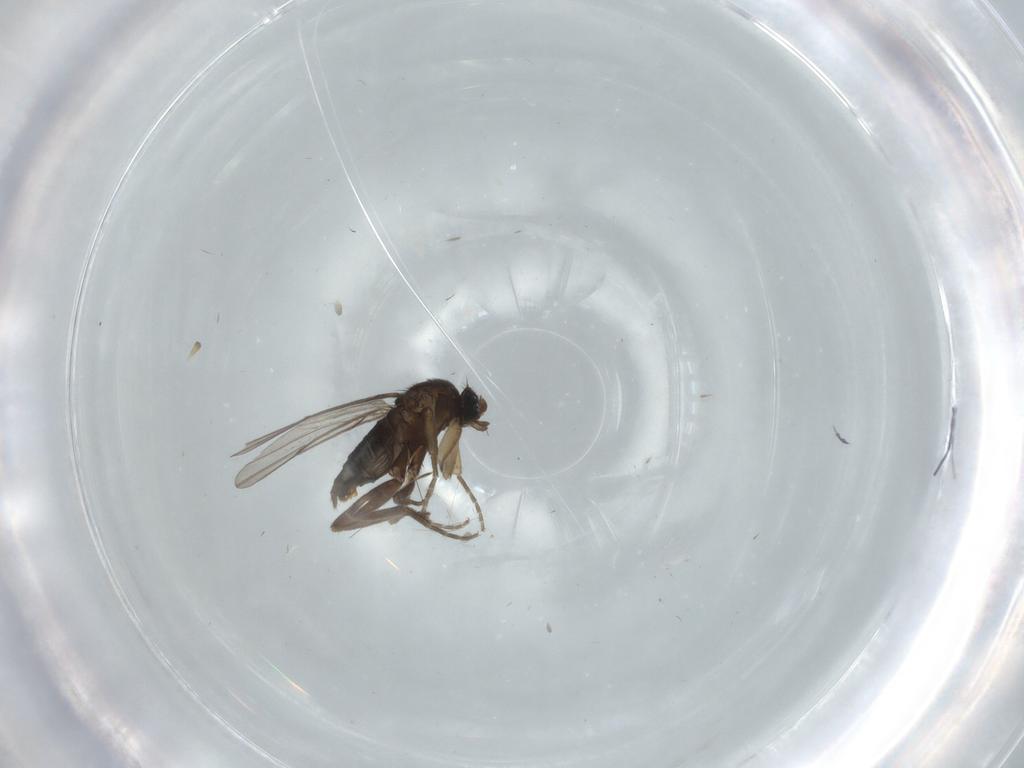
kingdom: Animalia
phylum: Arthropoda
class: Insecta
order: Diptera
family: Phoridae
